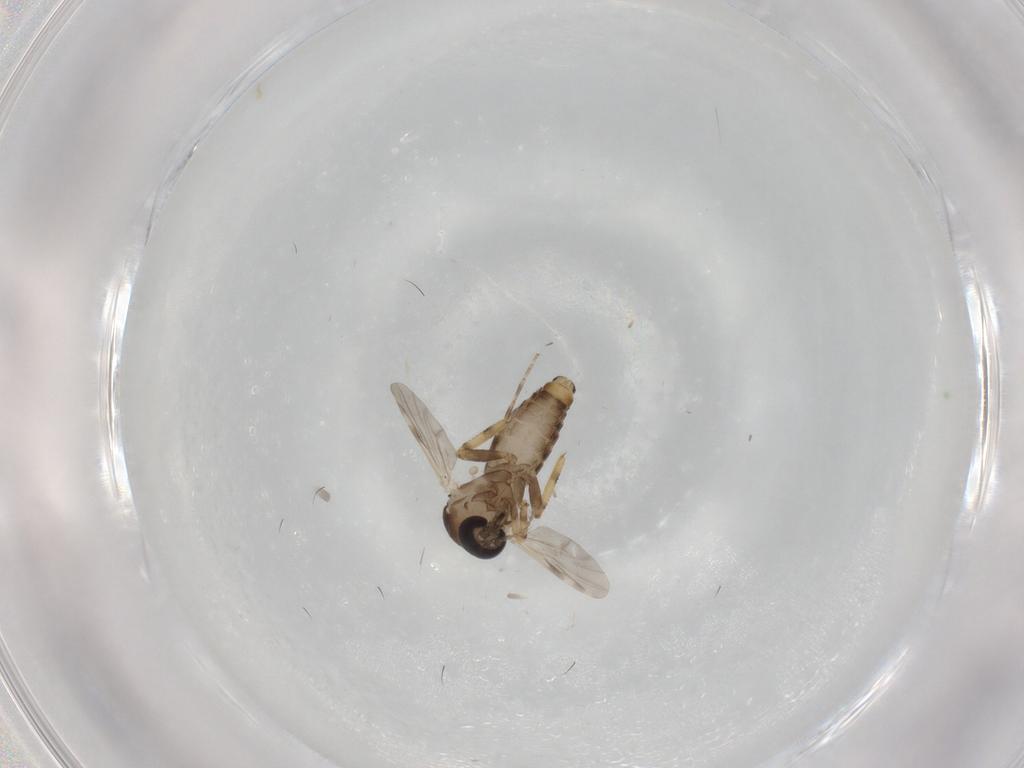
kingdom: Animalia
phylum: Arthropoda
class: Insecta
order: Diptera
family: Ceratopogonidae
